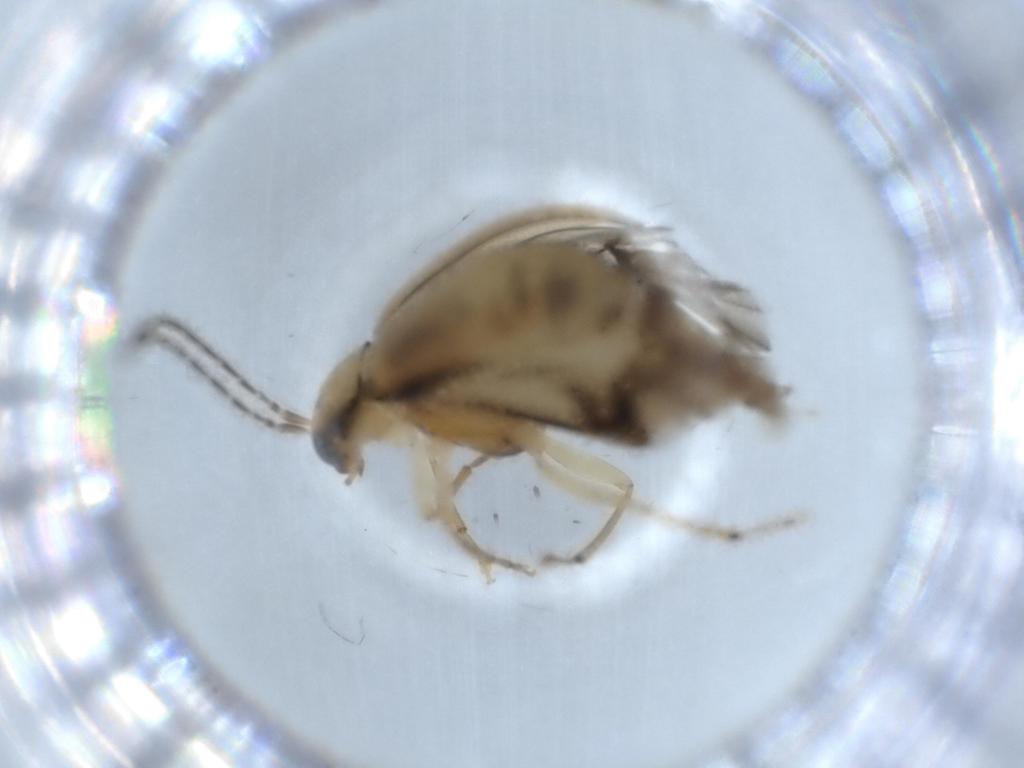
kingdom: Animalia
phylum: Arthropoda
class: Insecta
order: Coleoptera
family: Chrysomelidae
